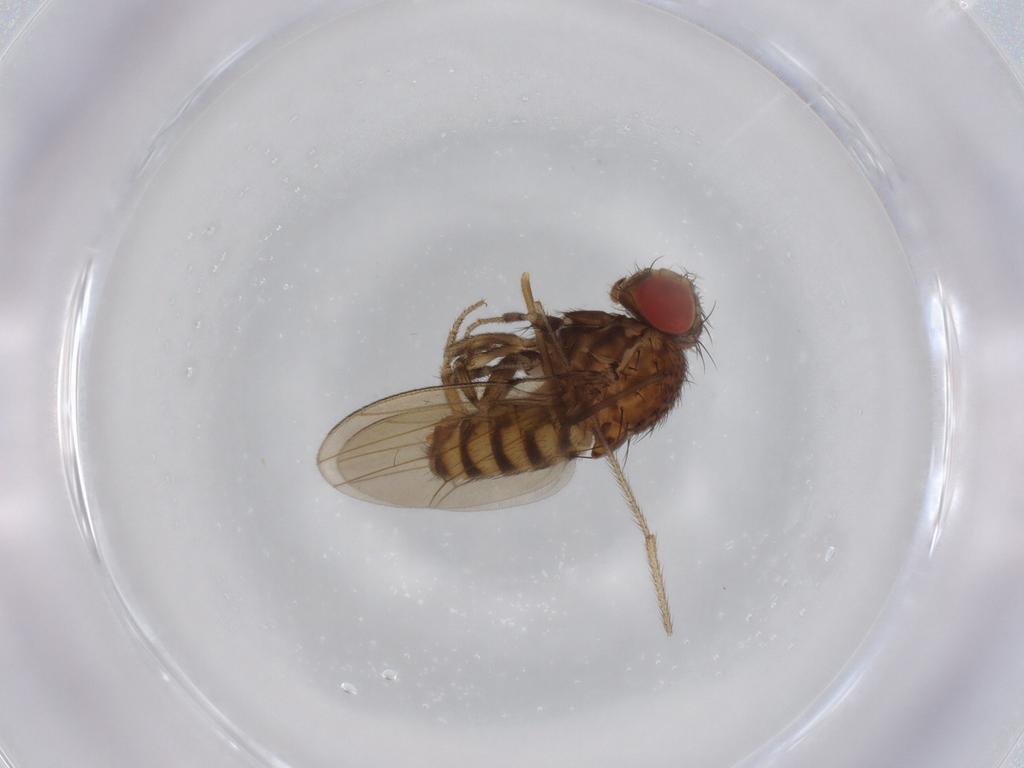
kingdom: Animalia
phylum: Arthropoda
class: Insecta
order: Diptera
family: Drosophilidae
